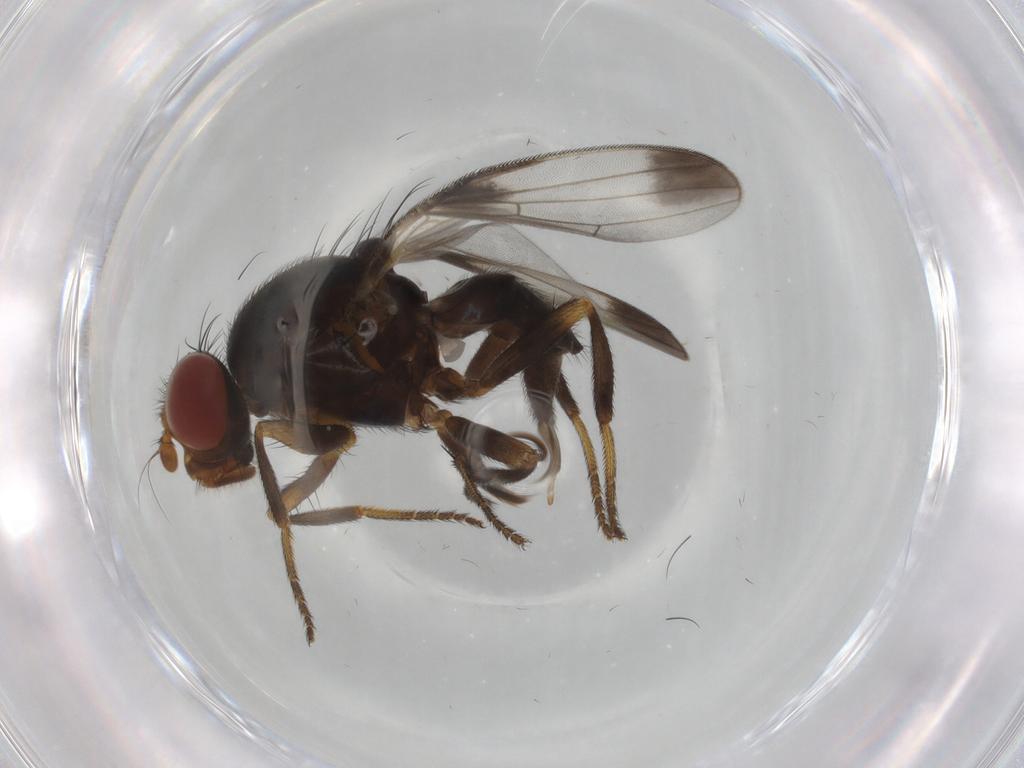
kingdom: Animalia
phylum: Arthropoda
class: Insecta
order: Diptera
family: Ulidiidae
